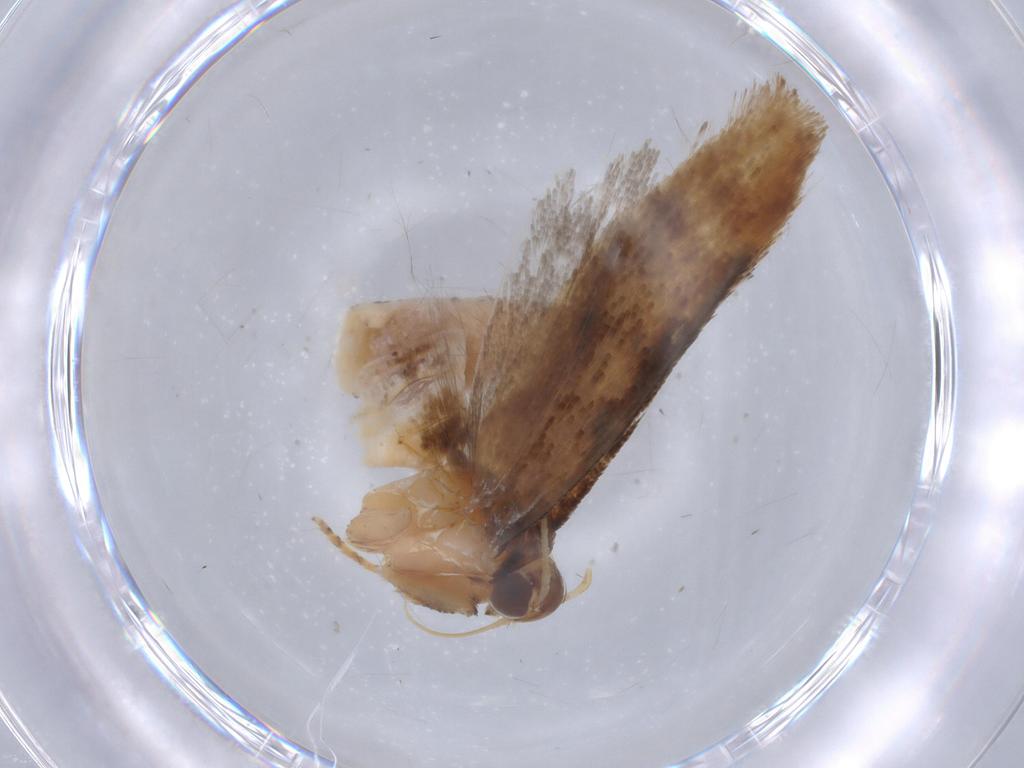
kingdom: Animalia
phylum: Arthropoda
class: Insecta
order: Lepidoptera
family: Gelechiidae
